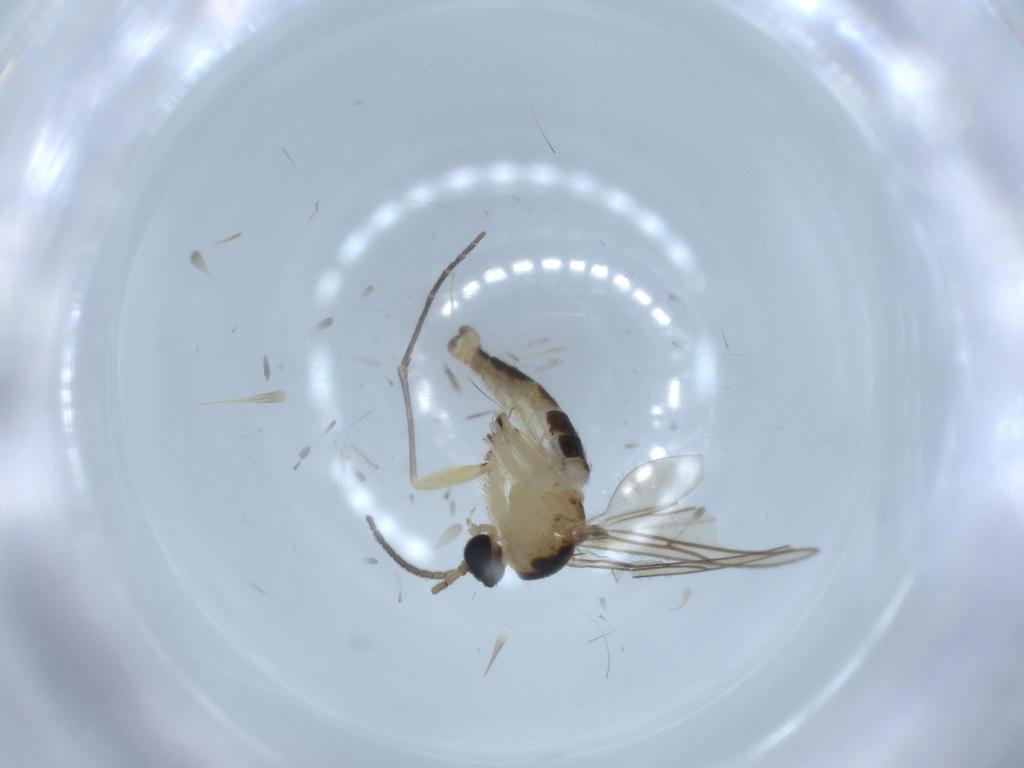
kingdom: Animalia
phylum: Arthropoda
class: Insecta
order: Diptera
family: Sciaridae
